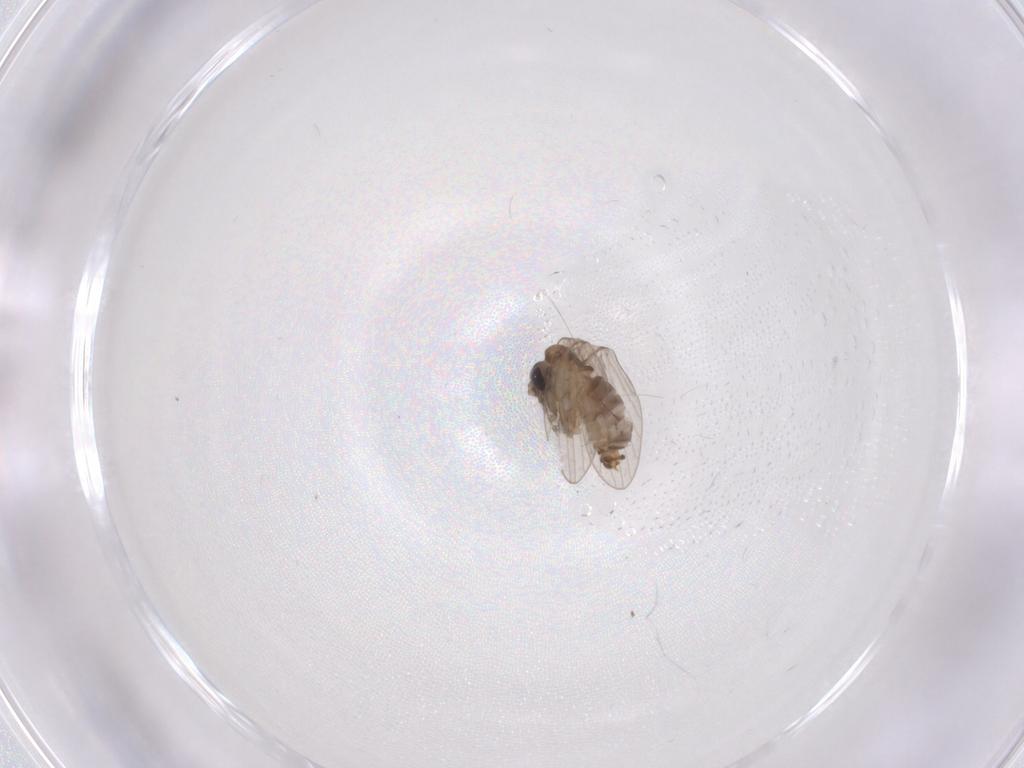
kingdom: Animalia
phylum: Arthropoda
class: Insecta
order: Diptera
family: Psychodidae
